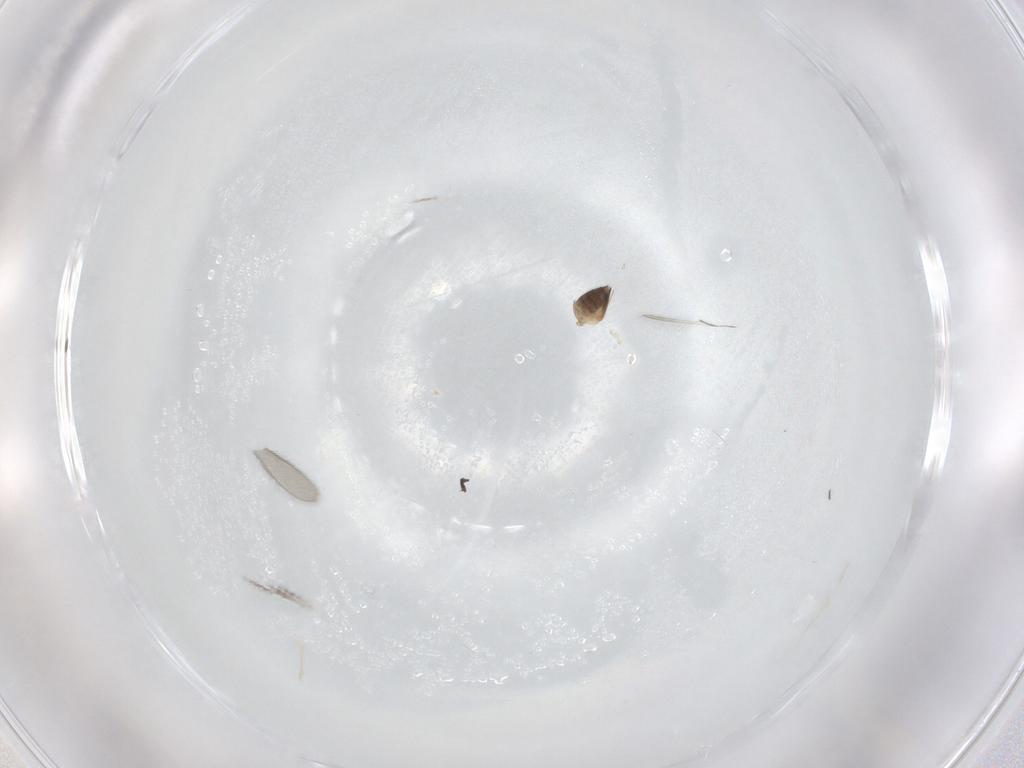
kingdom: Animalia
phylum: Arthropoda
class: Insecta
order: Hymenoptera
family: Mymaridae
